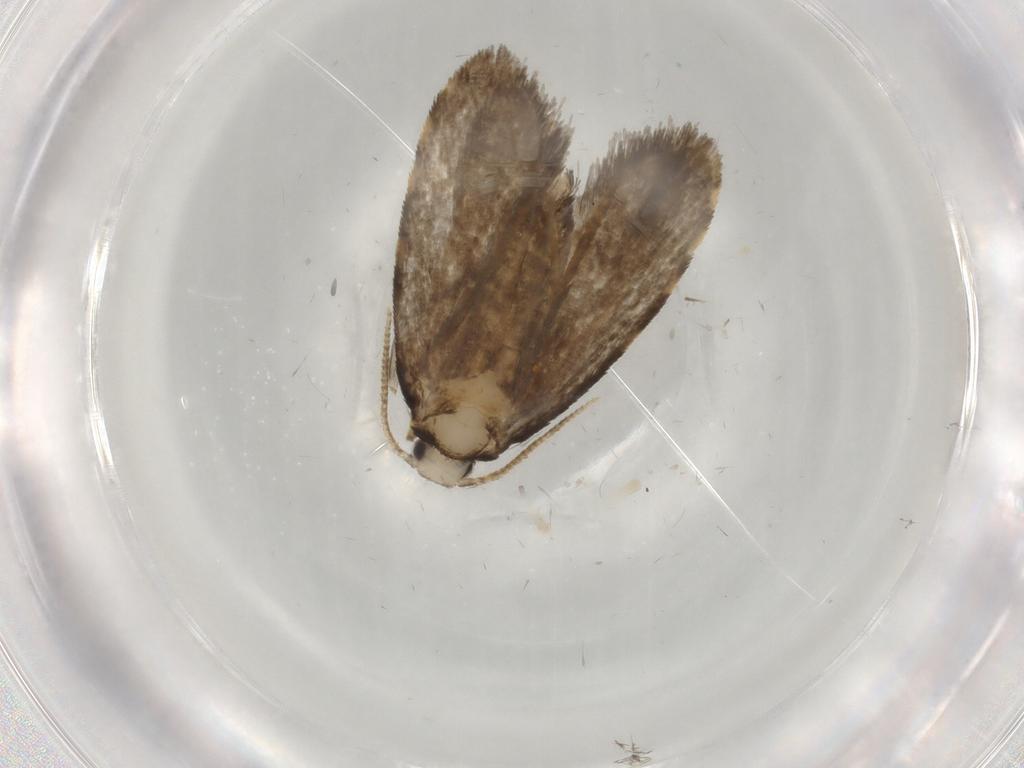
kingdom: Animalia
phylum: Arthropoda
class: Insecta
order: Lepidoptera
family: Psychidae
